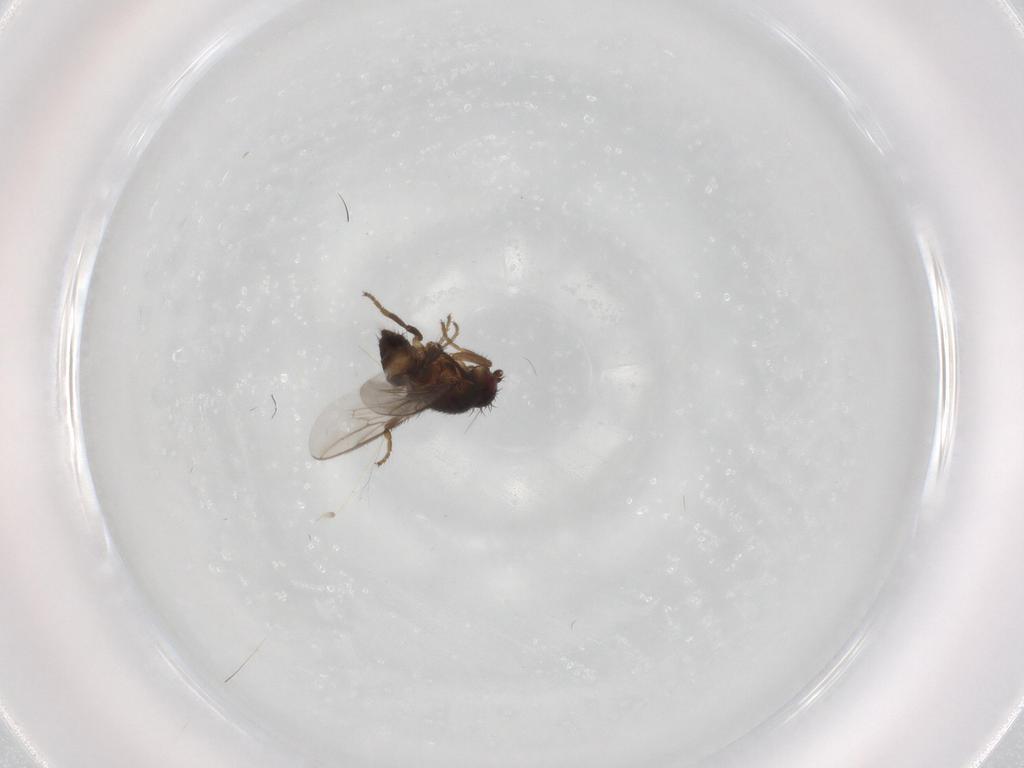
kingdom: Animalia
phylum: Arthropoda
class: Insecta
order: Diptera
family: Sciaridae
